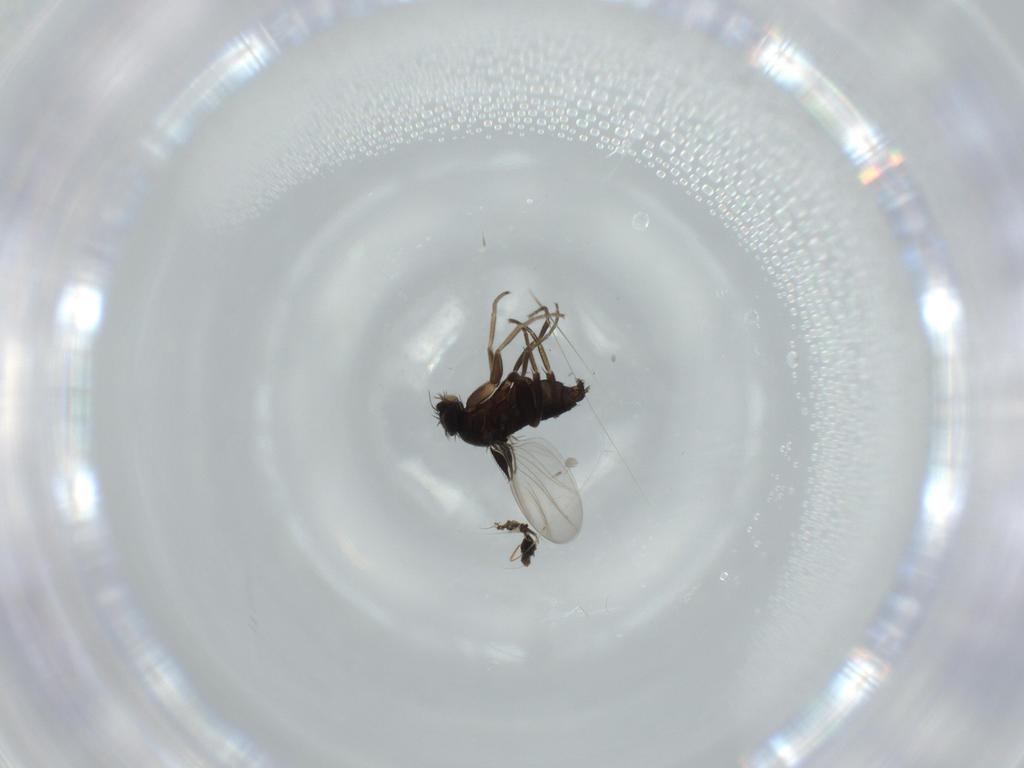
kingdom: Animalia
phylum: Arthropoda
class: Insecta
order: Diptera
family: Phoridae
